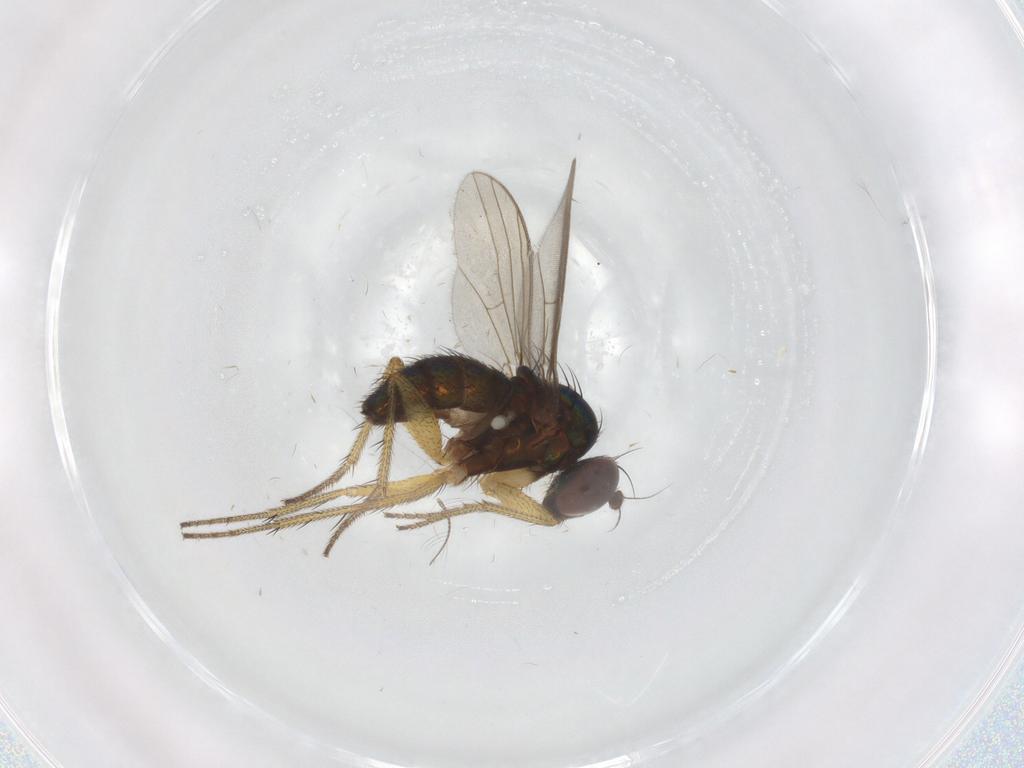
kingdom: Animalia
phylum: Arthropoda
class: Insecta
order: Diptera
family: Sciaridae
